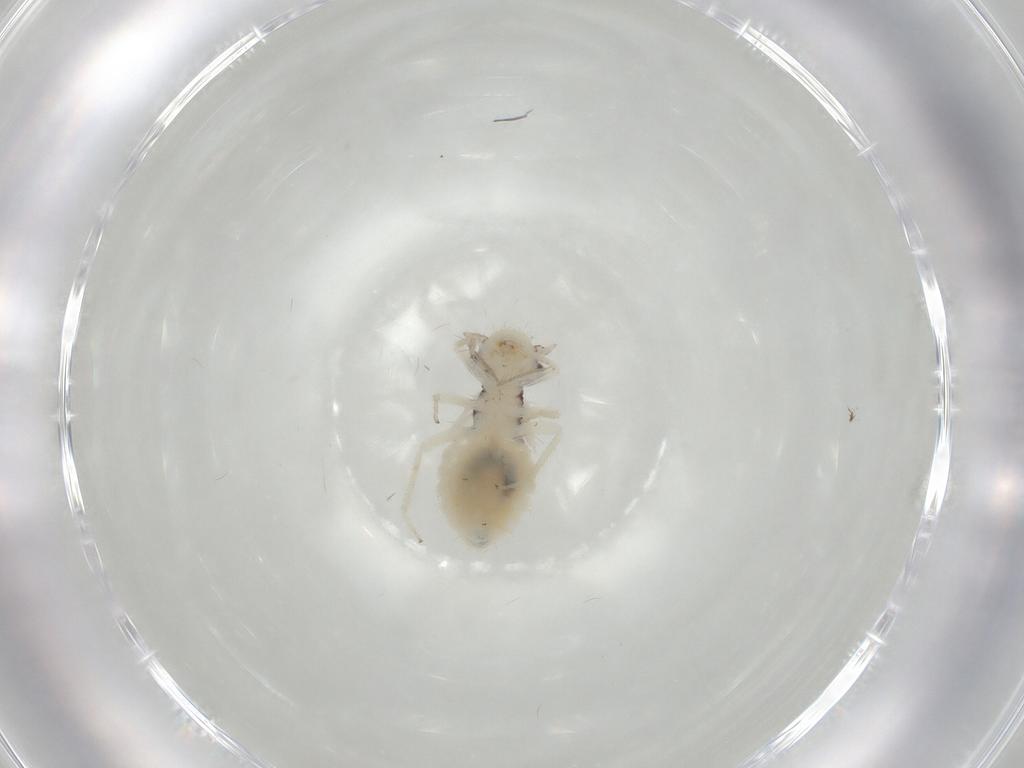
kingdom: Animalia
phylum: Arthropoda
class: Insecta
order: Psocodea
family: Philotarsidae
